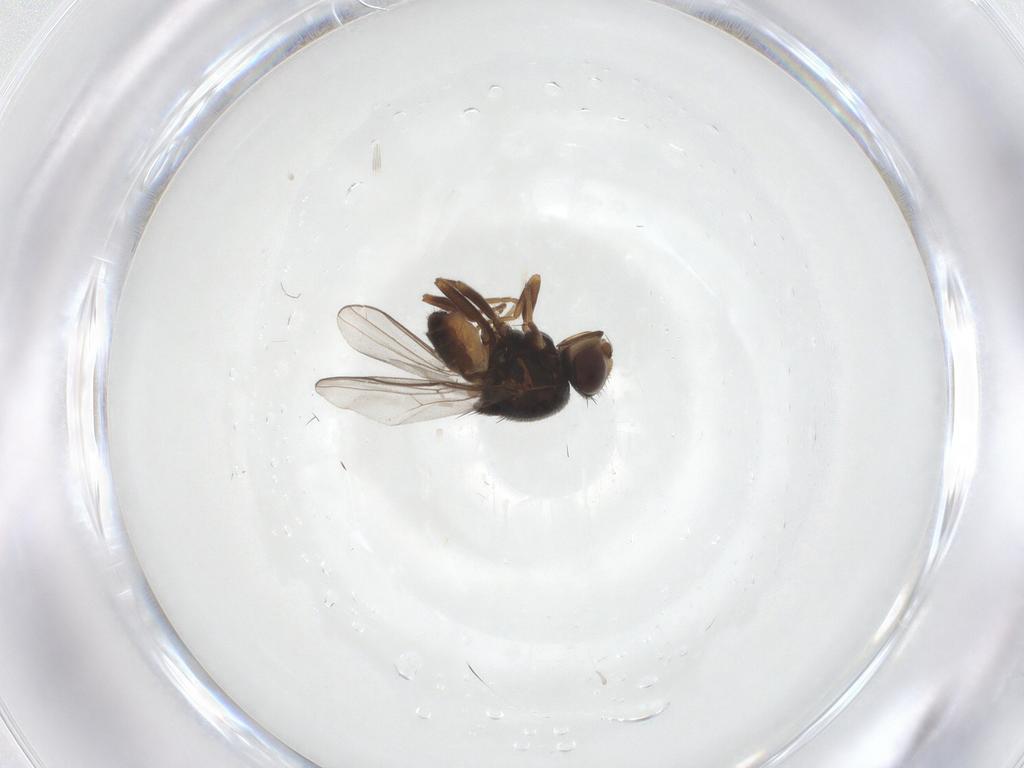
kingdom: Animalia
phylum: Arthropoda
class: Insecta
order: Diptera
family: Chloropidae
